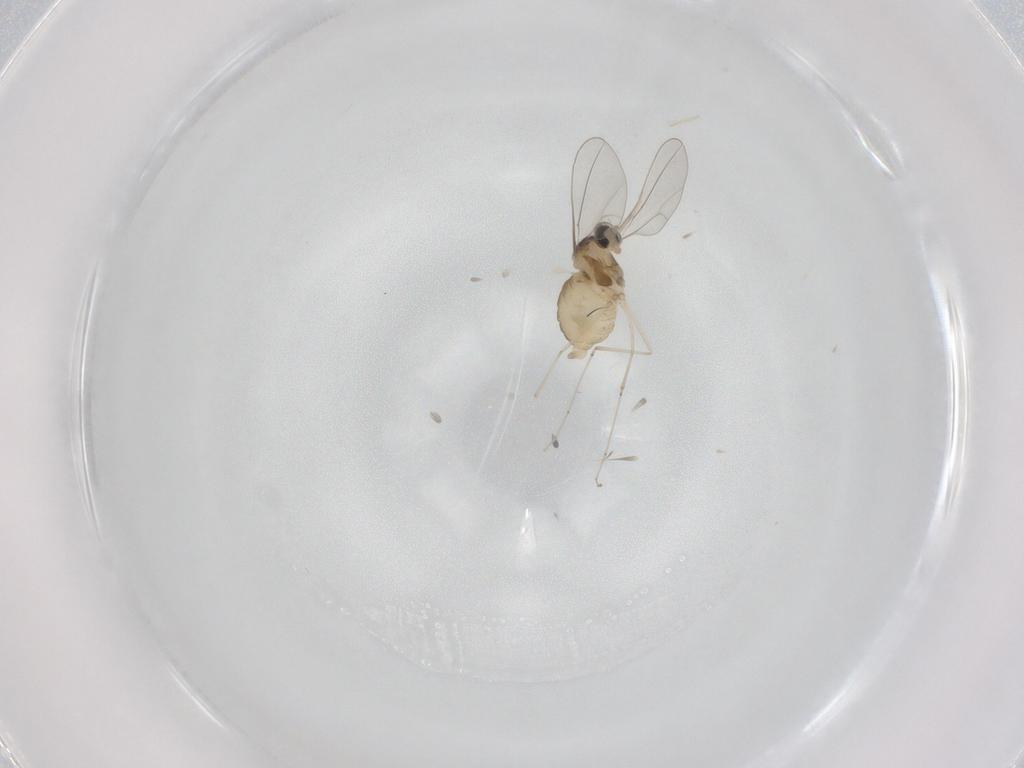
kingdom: Animalia
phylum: Arthropoda
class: Insecta
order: Diptera
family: Cecidomyiidae
